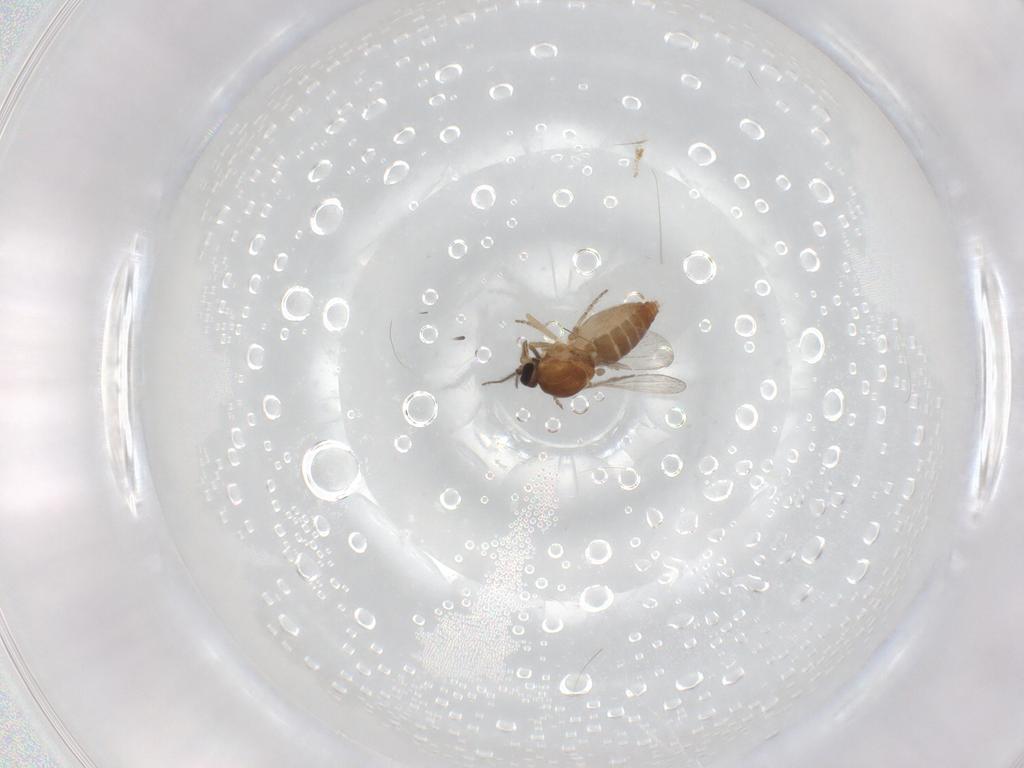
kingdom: Animalia
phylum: Arthropoda
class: Insecta
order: Diptera
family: Ceratopogonidae
